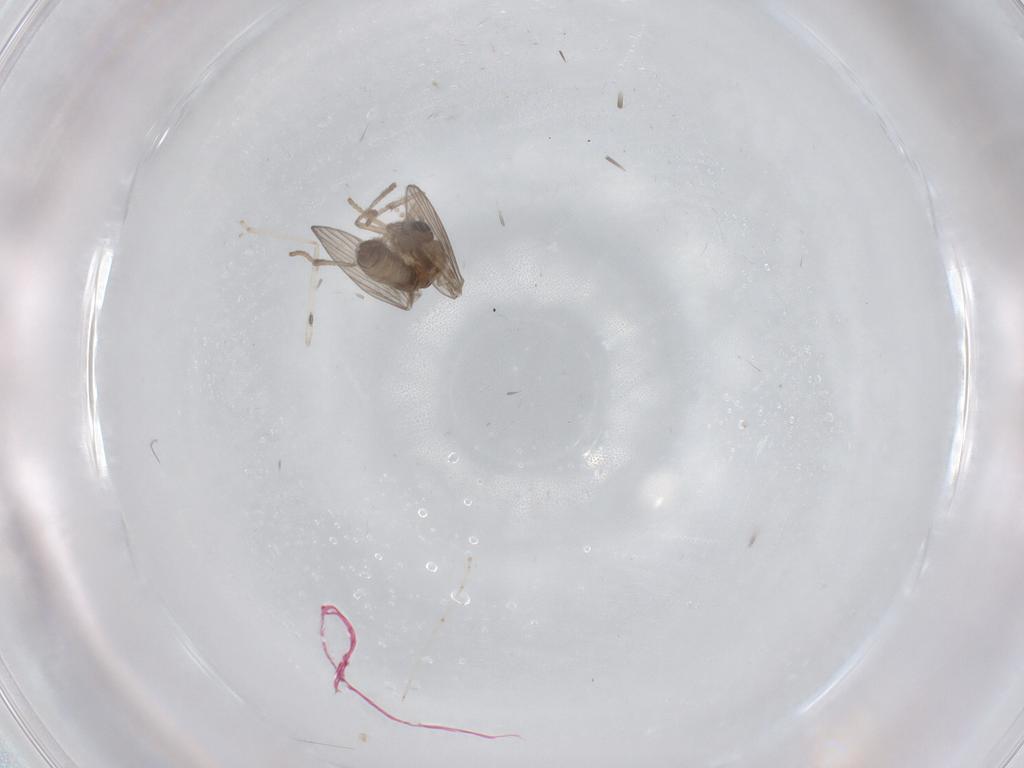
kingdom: Animalia
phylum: Arthropoda
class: Insecta
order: Diptera
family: Psychodidae
